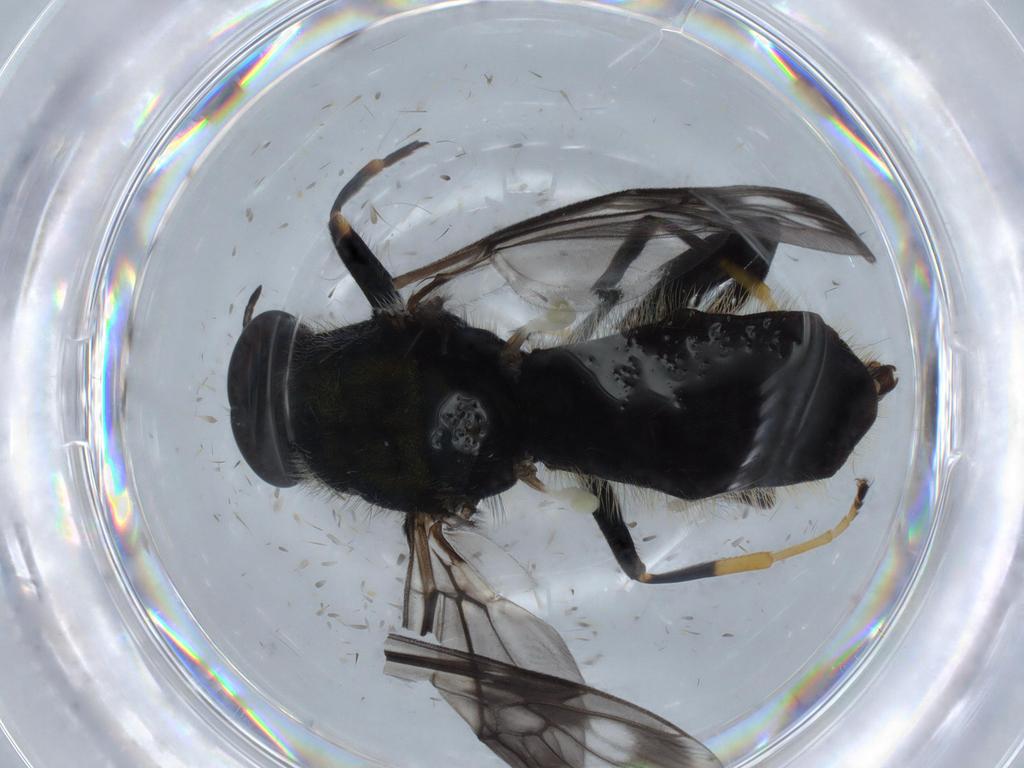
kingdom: Animalia
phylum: Arthropoda
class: Insecta
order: Diptera
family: Sciaridae
